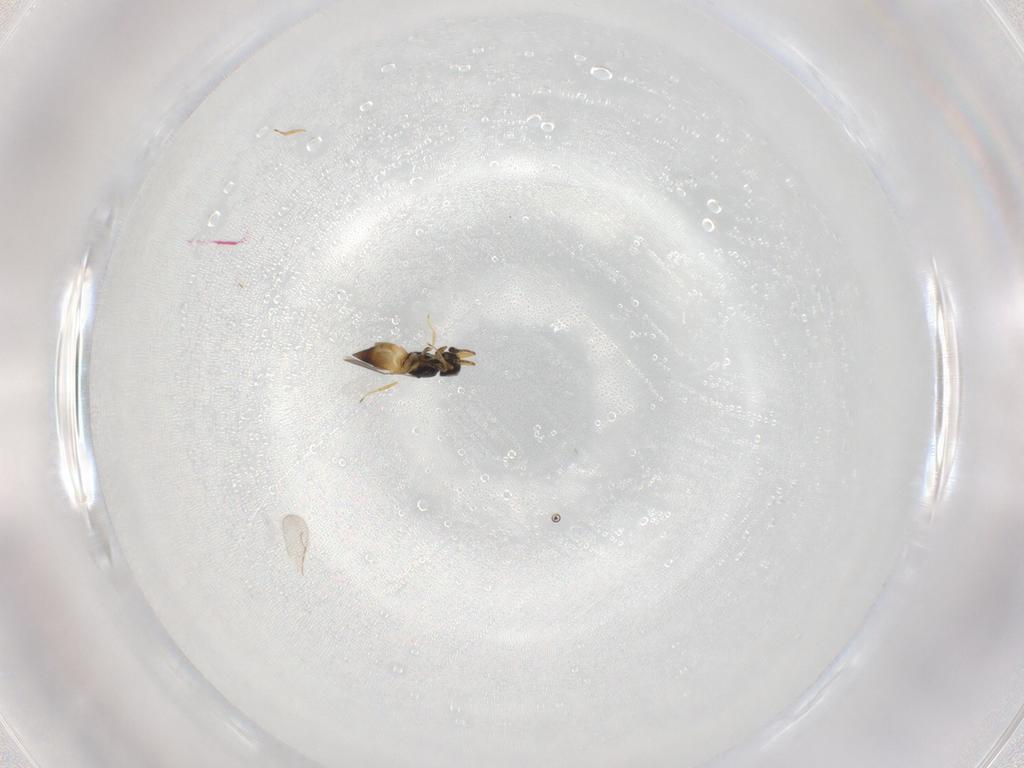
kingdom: Animalia
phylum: Arthropoda
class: Insecta
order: Hymenoptera
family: Ceraphronidae
